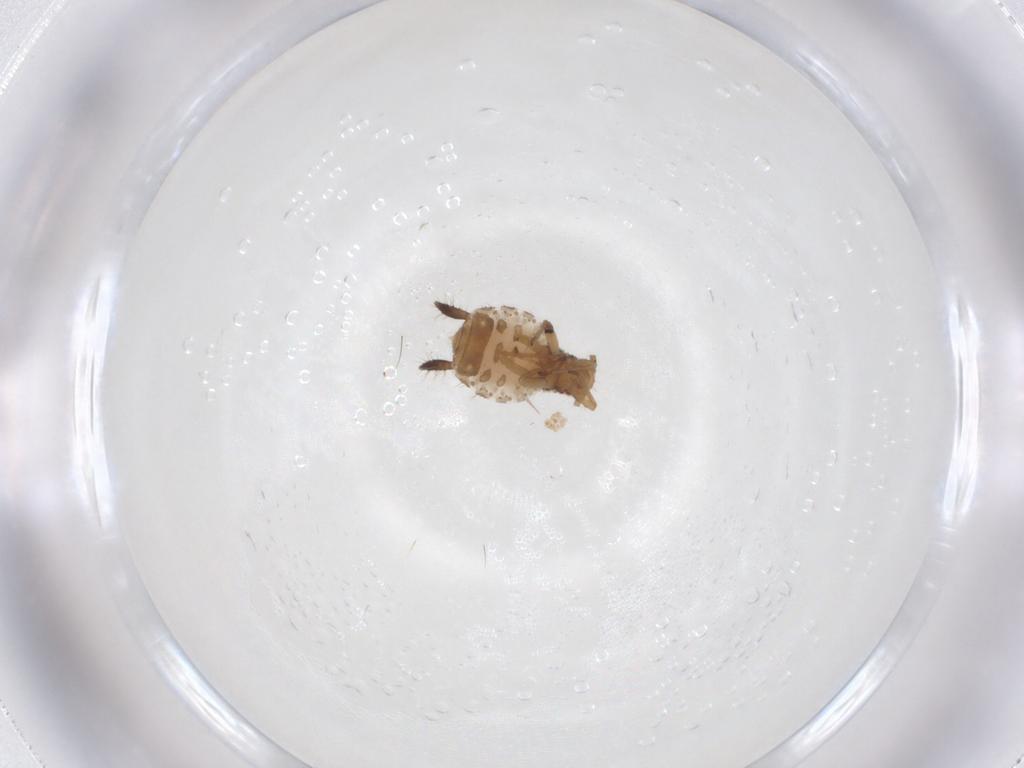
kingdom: Animalia
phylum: Arthropoda
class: Insecta
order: Hemiptera
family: Aphididae
